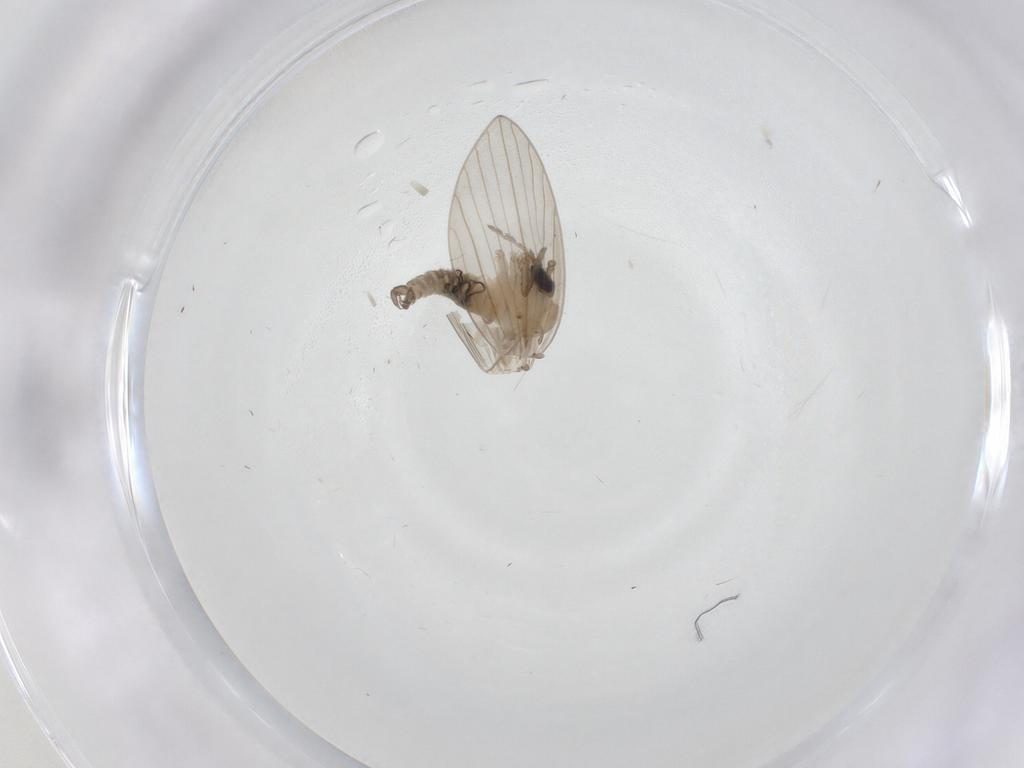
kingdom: Animalia
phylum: Arthropoda
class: Insecta
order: Diptera
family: Psychodidae
